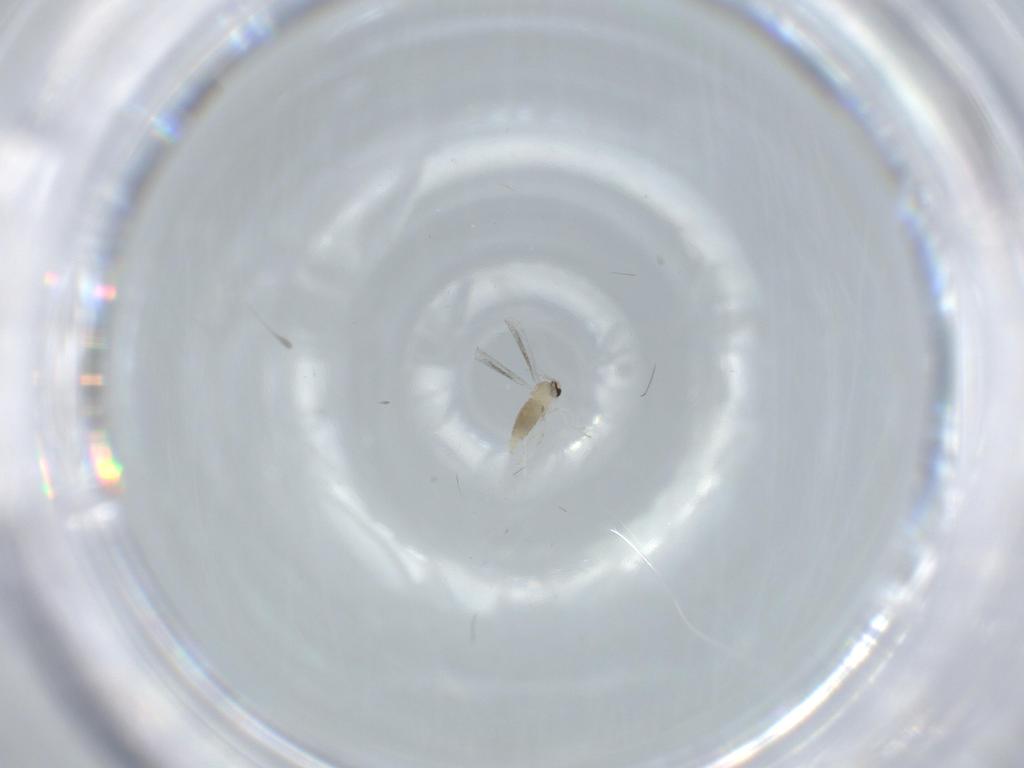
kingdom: Animalia
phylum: Arthropoda
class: Insecta
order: Diptera
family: Cecidomyiidae
